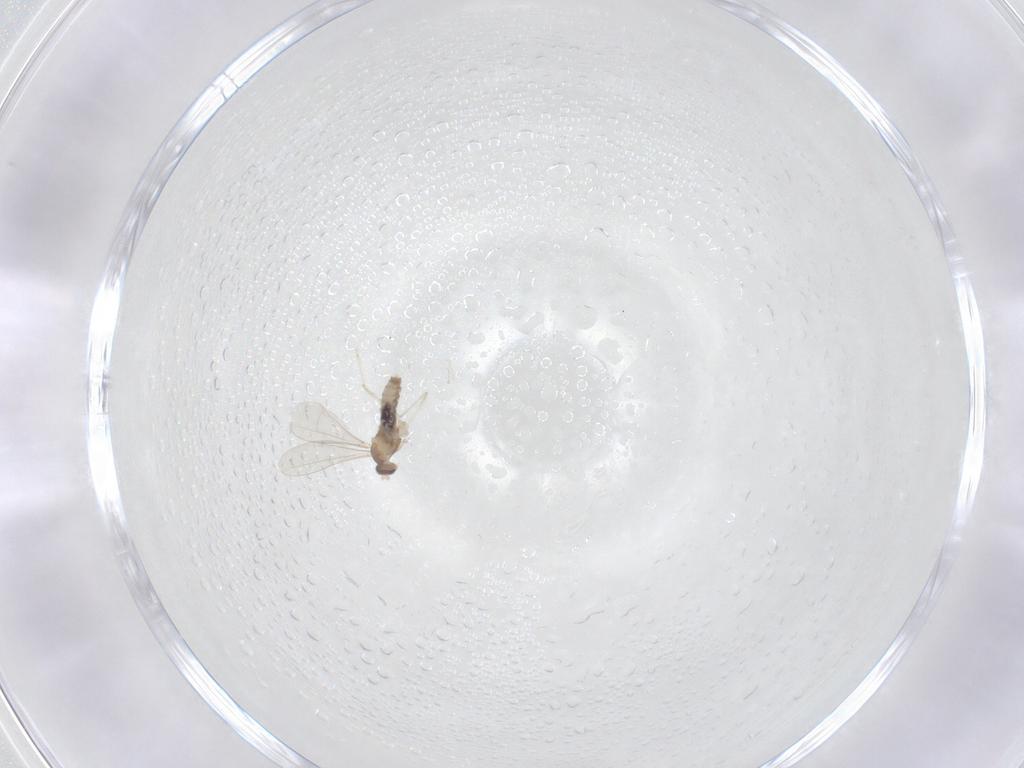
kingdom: Animalia
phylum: Arthropoda
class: Insecta
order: Diptera
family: Cecidomyiidae
